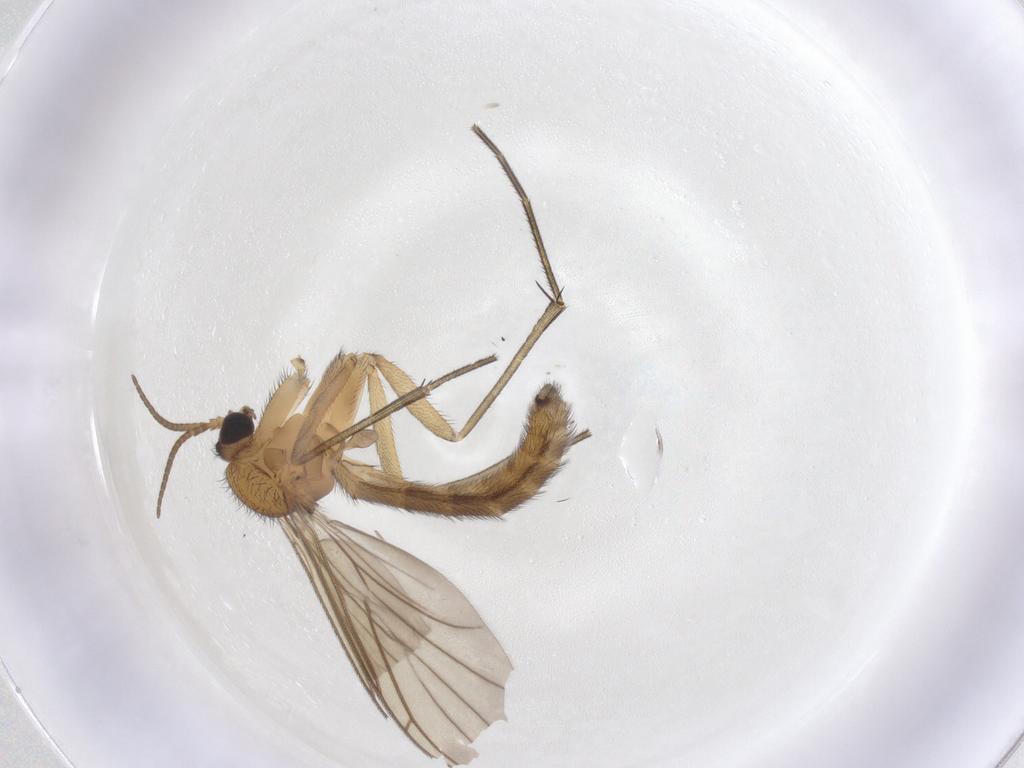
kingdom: Animalia
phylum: Arthropoda
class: Insecta
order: Diptera
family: Keroplatidae
